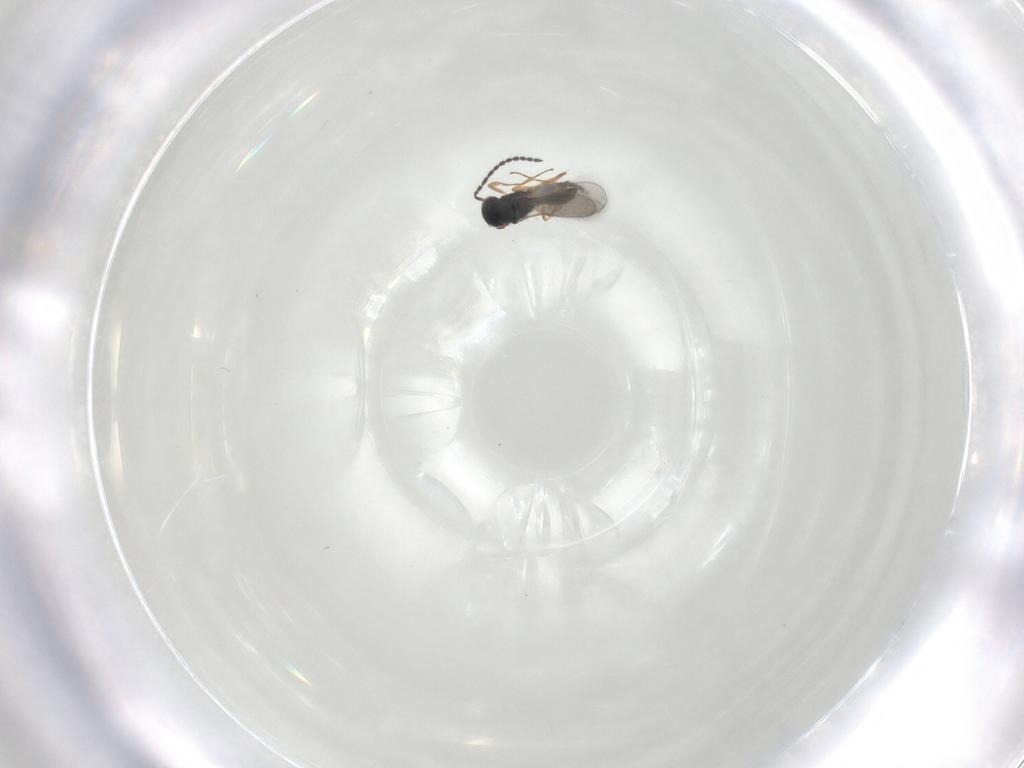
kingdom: Animalia
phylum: Arthropoda
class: Insecta
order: Hymenoptera
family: Scelionidae
